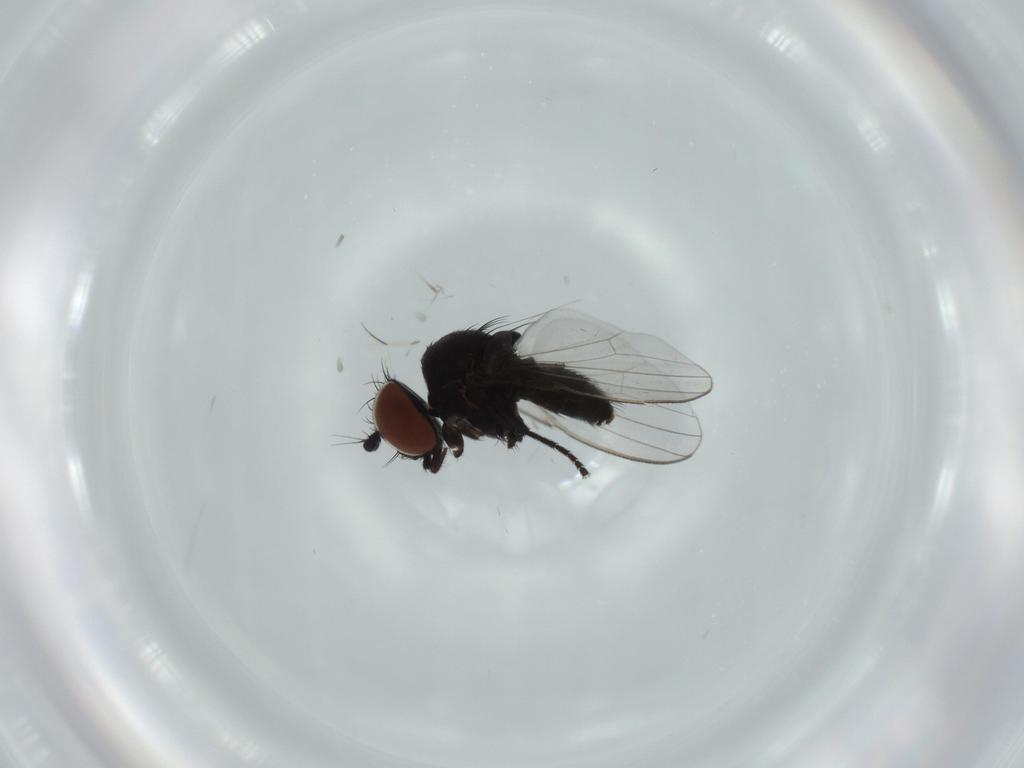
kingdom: Animalia
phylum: Arthropoda
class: Insecta
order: Diptera
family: Milichiidae
